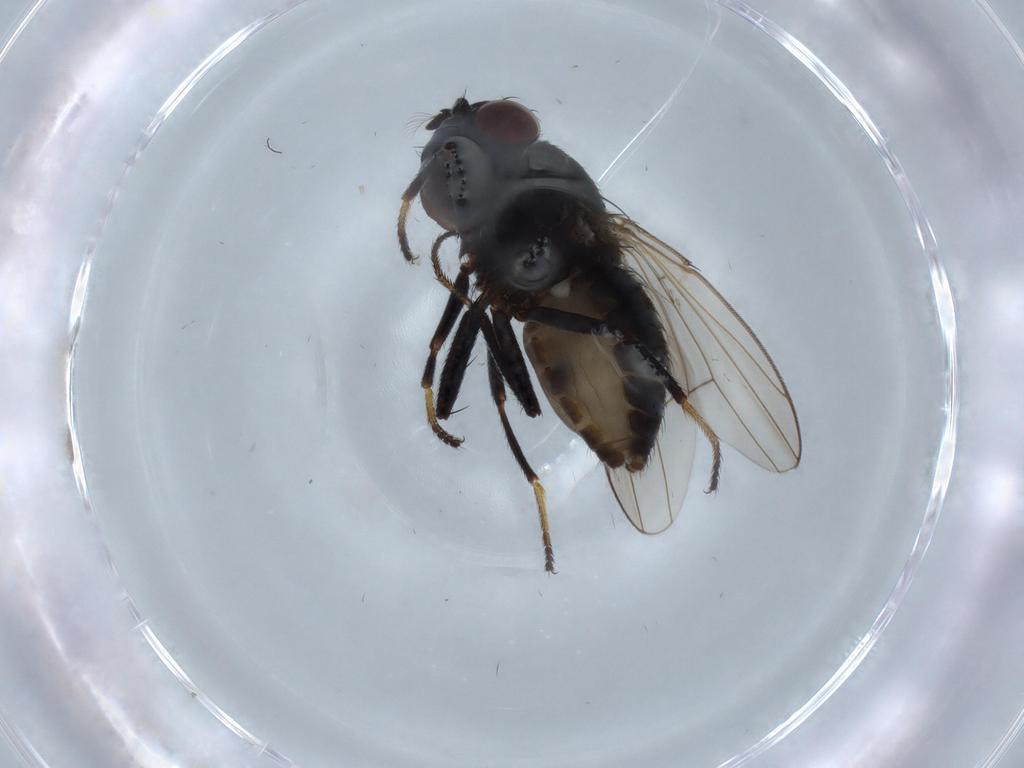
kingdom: Animalia
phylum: Arthropoda
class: Insecta
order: Diptera
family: Ephydridae
